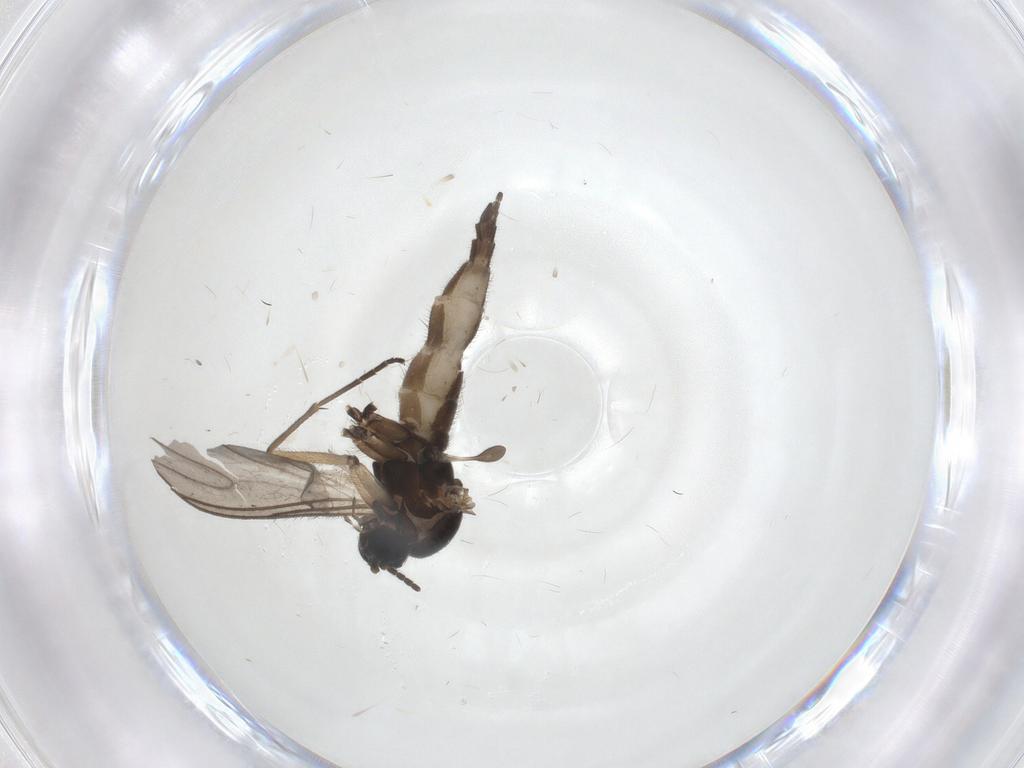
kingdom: Animalia
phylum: Arthropoda
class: Insecta
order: Diptera
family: Sciaridae
